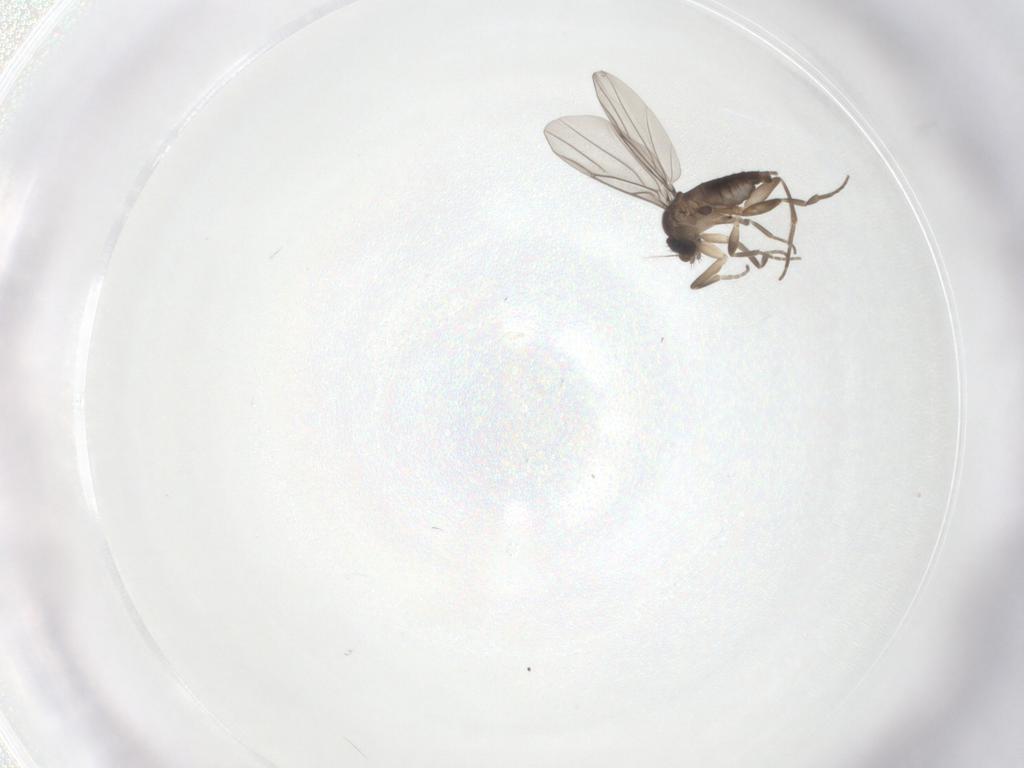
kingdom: Animalia
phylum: Arthropoda
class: Insecta
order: Diptera
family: Phoridae
